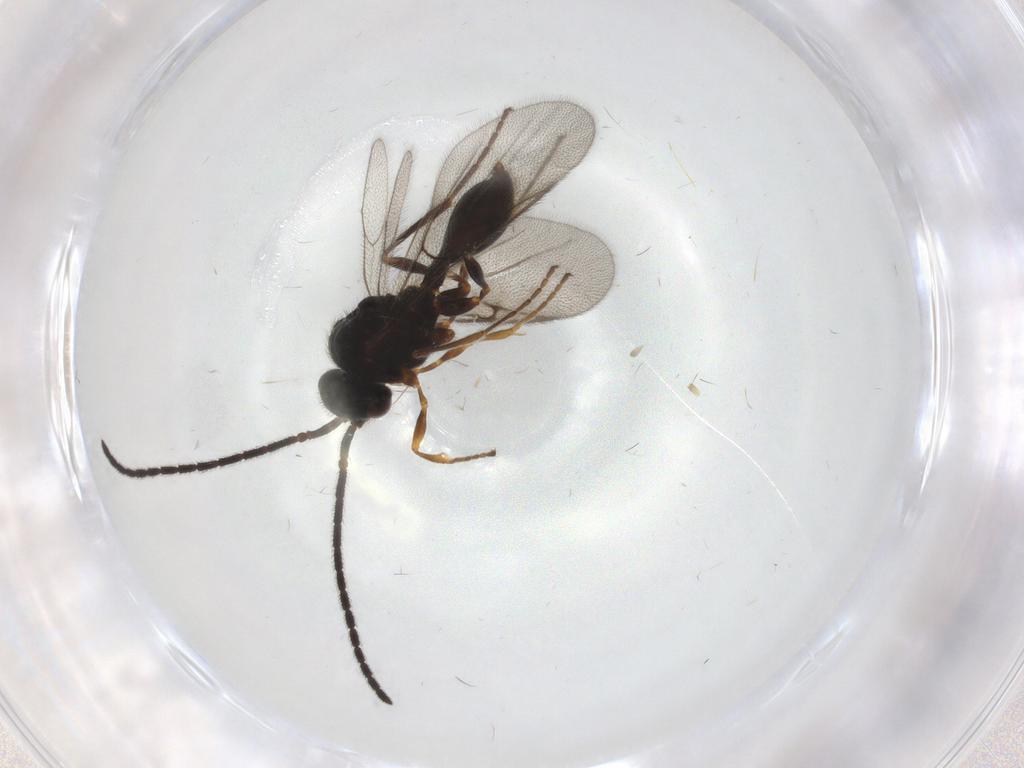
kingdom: Animalia
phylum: Arthropoda
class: Insecta
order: Hymenoptera
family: Diapriidae
